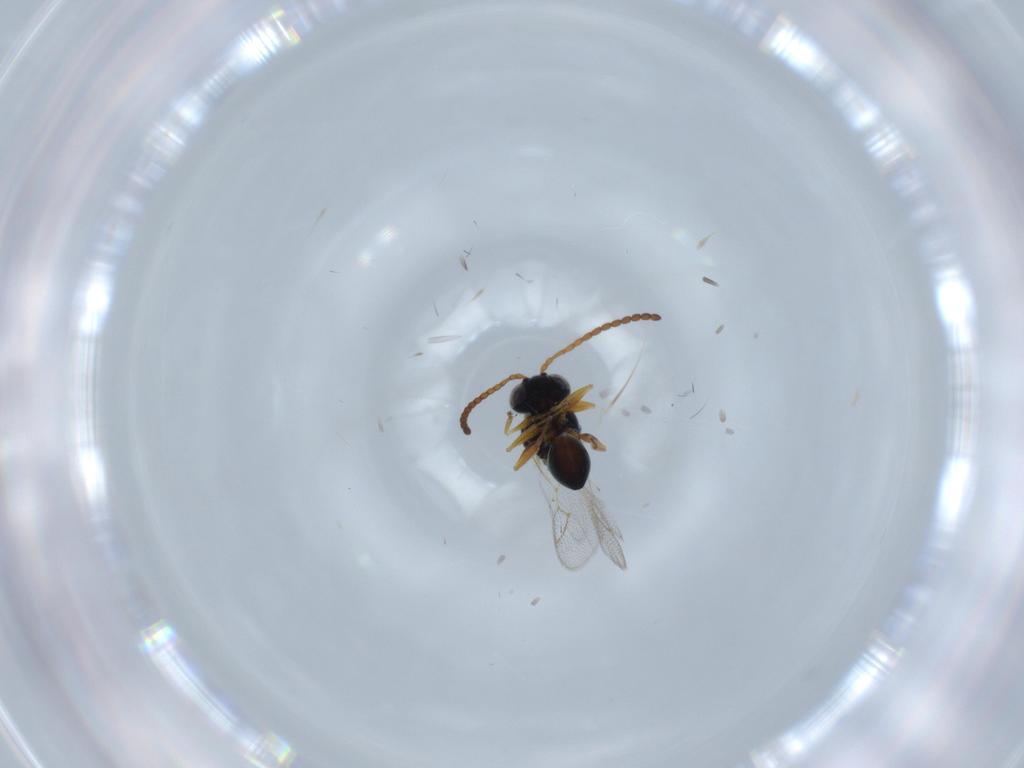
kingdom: Animalia
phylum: Arthropoda
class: Insecta
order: Hymenoptera
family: Figitidae
